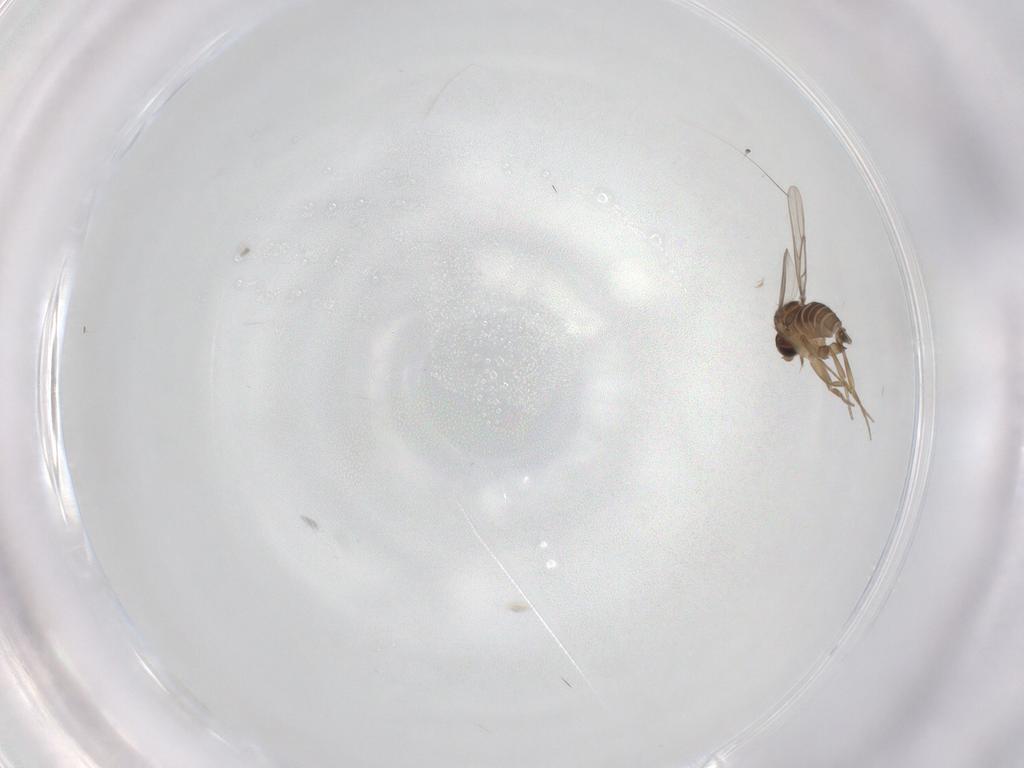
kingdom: Animalia
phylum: Arthropoda
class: Insecta
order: Diptera
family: Phoridae
